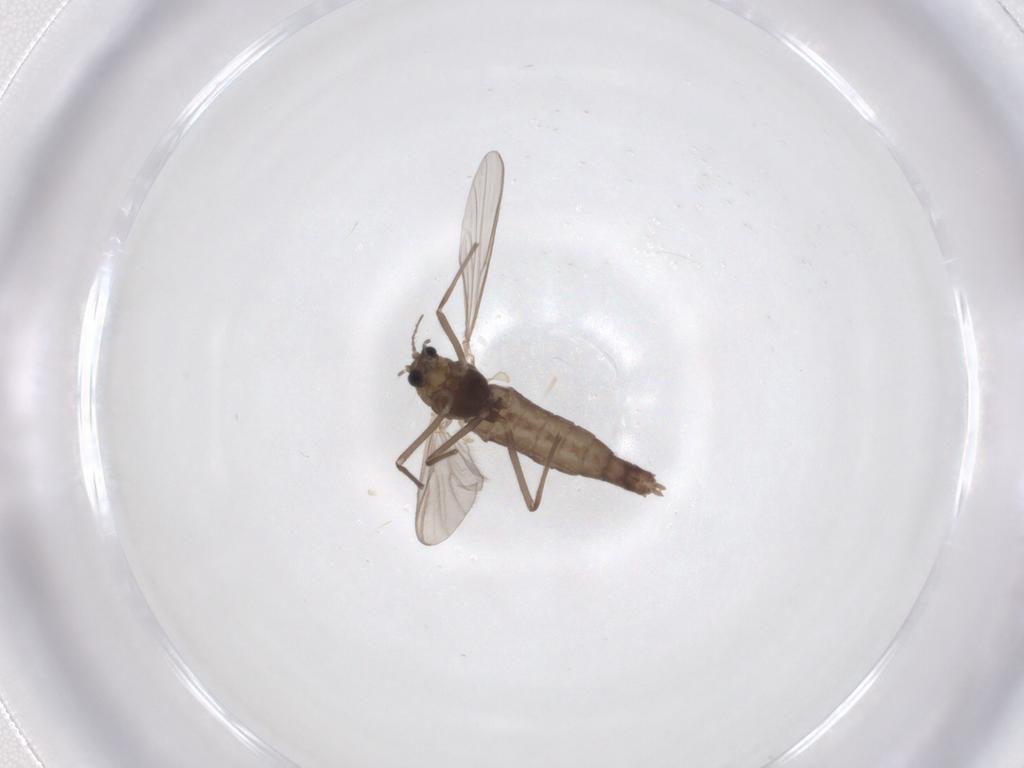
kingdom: Animalia
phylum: Arthropoda
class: Insecta
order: Diptera
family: Chironomidae
